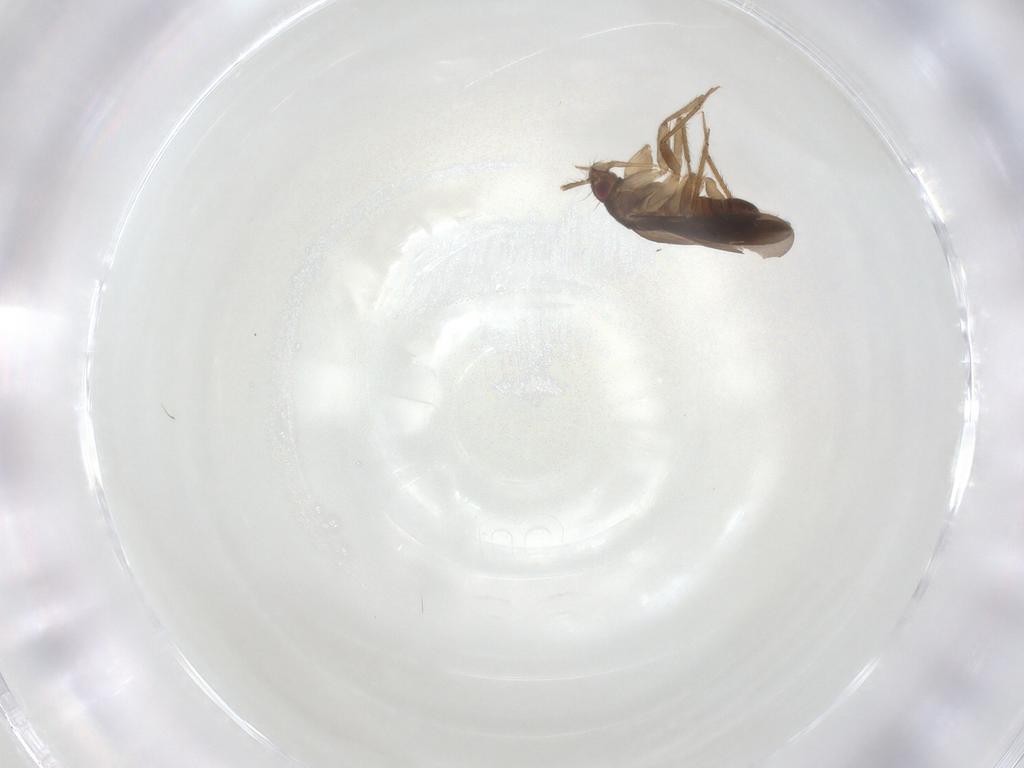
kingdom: Animalia
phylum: Arthropoda
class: Insecta
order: Hemiptera
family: Ceratocombidae
